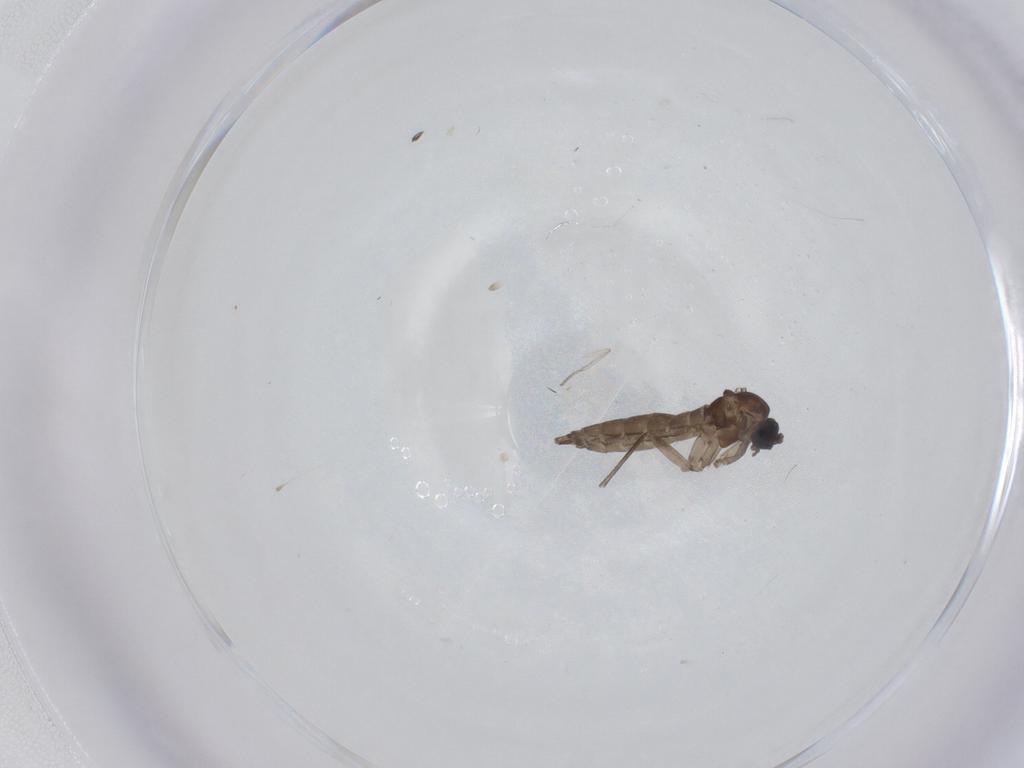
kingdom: Animalia
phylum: Arthropoda
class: Insecta
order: Diptera
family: Sciaridae
